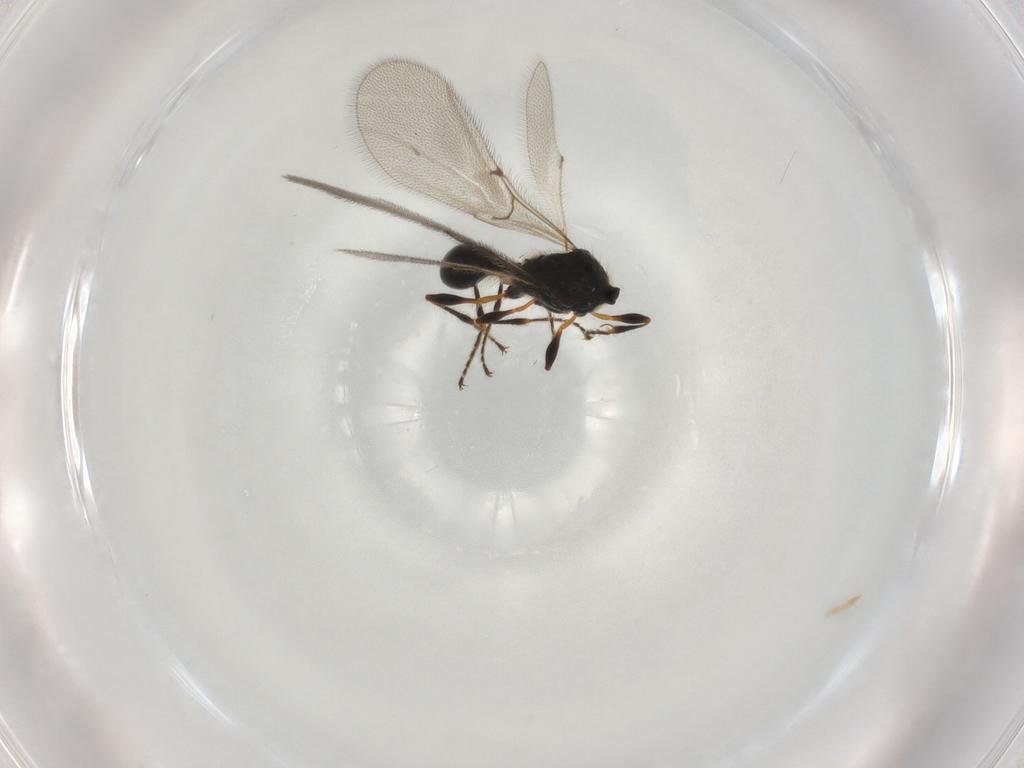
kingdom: Animalia
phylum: Arthropoda
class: Insecta
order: Hymenoptera
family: Diapriidae
